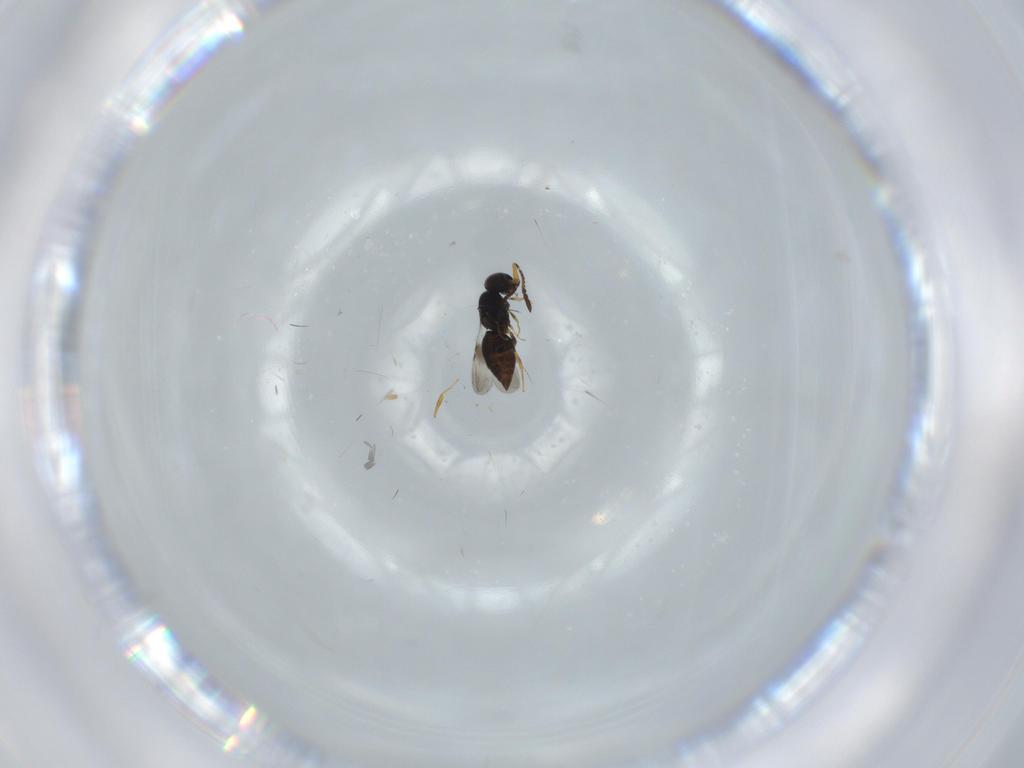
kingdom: Animalia
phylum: Arthropoda
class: Insecta
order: Hymenoptera
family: Scelionidae
